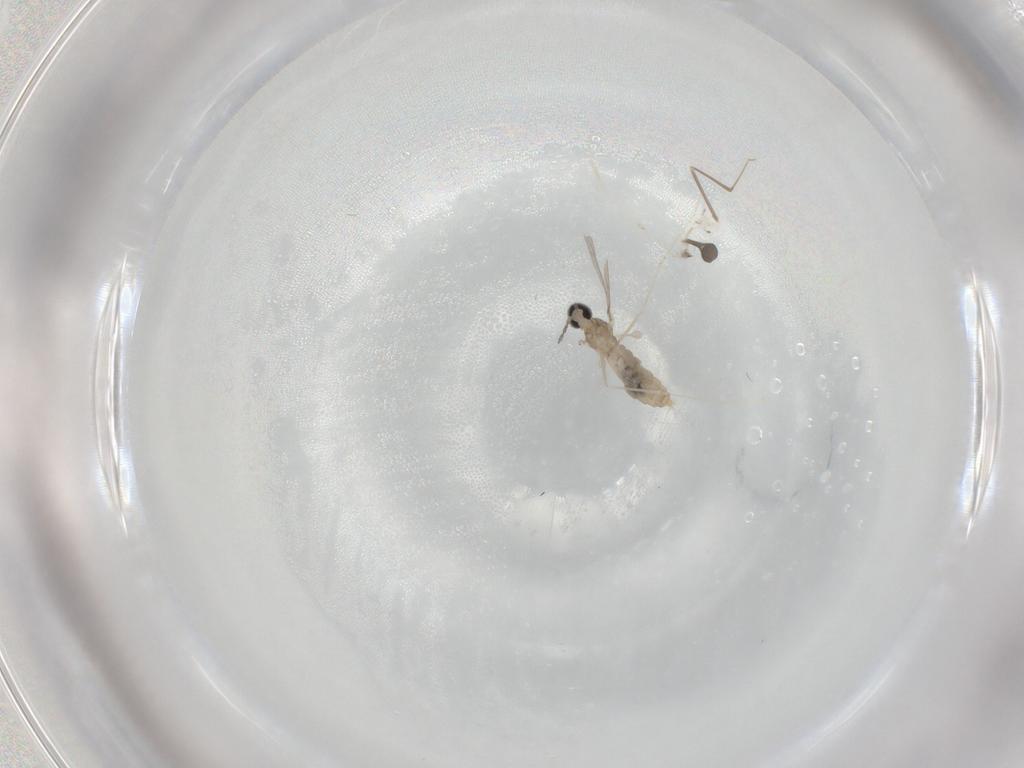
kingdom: Animalia
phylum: Arthropoda
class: Insecta
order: Diptera
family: Cecidomyiidae
